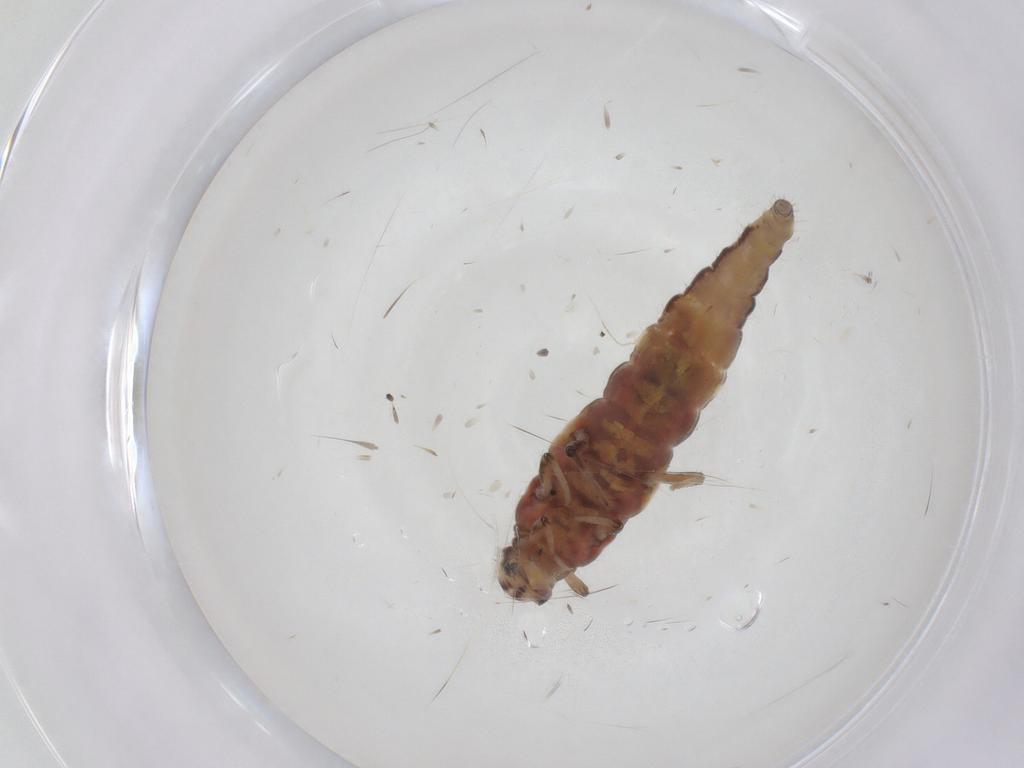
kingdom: Animalia
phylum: Arthropoda
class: Insecta
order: Neuroptera
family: Hemerobiidae
